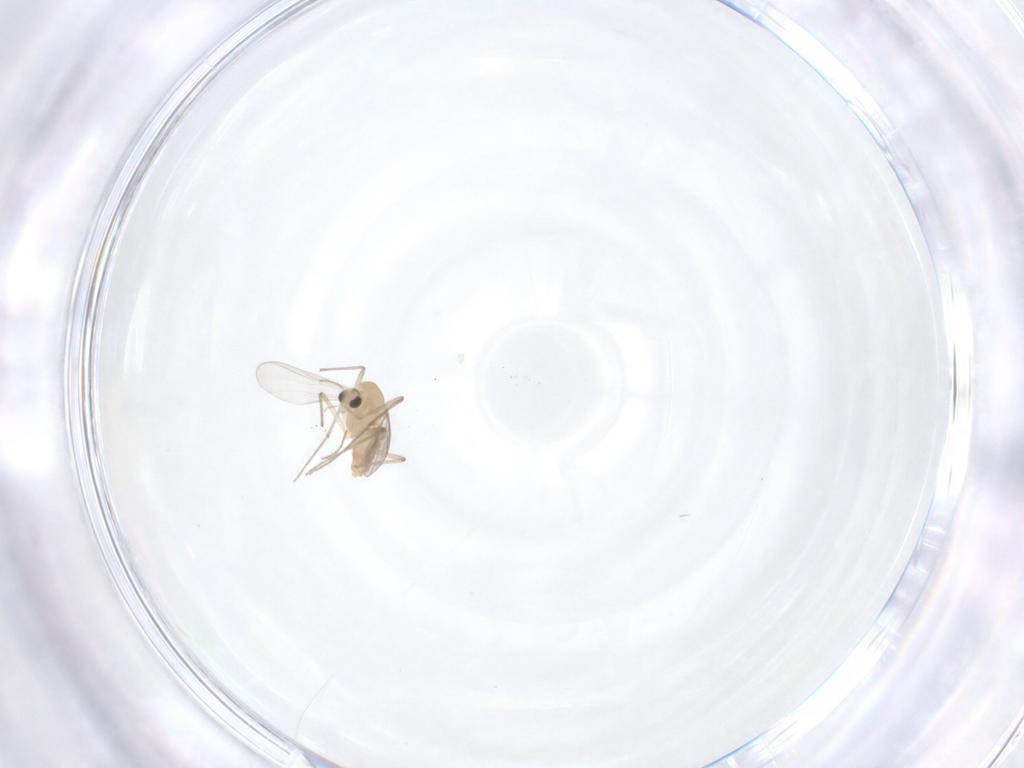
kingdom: Animalia
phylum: Arthropoda
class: Insecta
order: Diptera
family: Chironomidae
